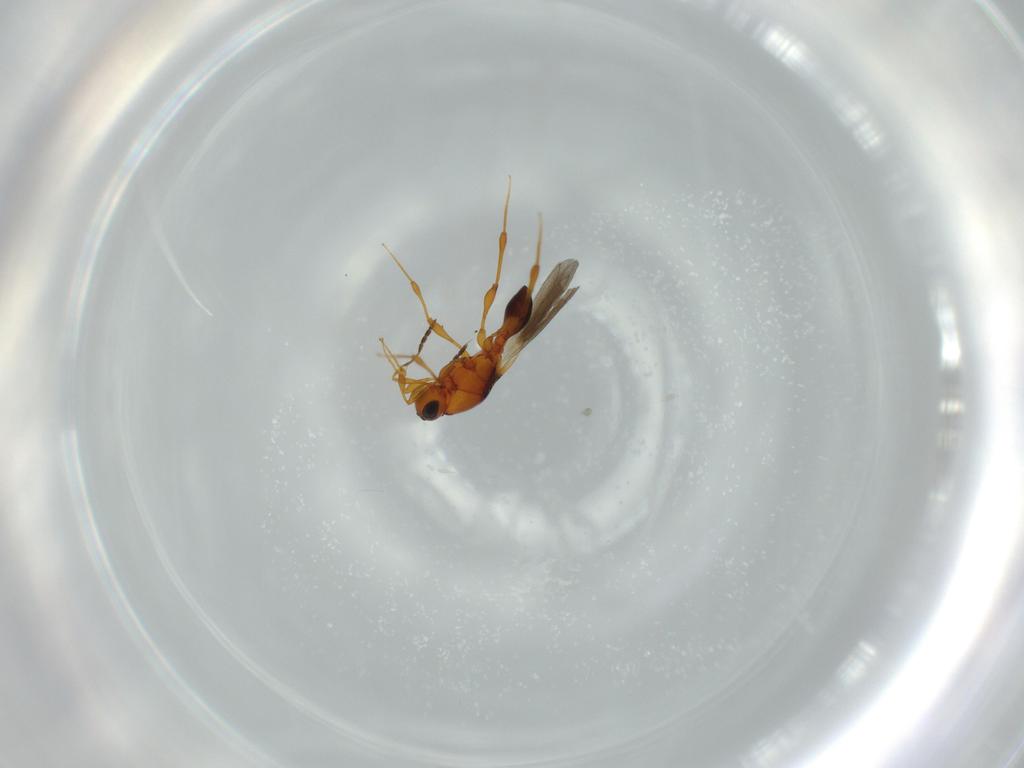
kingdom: Animalia
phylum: Arthropoda
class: Insecta
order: Hymenoptera
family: Platygastridae
